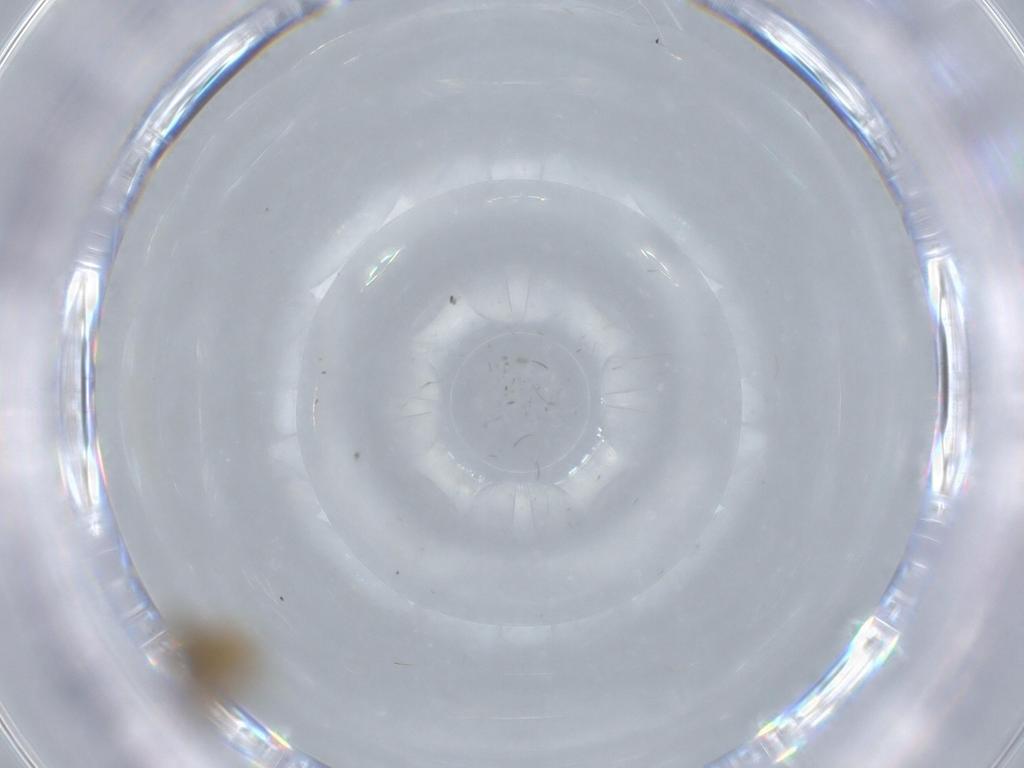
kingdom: Animalia
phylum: Arthropoda
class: Insecta
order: Diptera
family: Chironomidae
